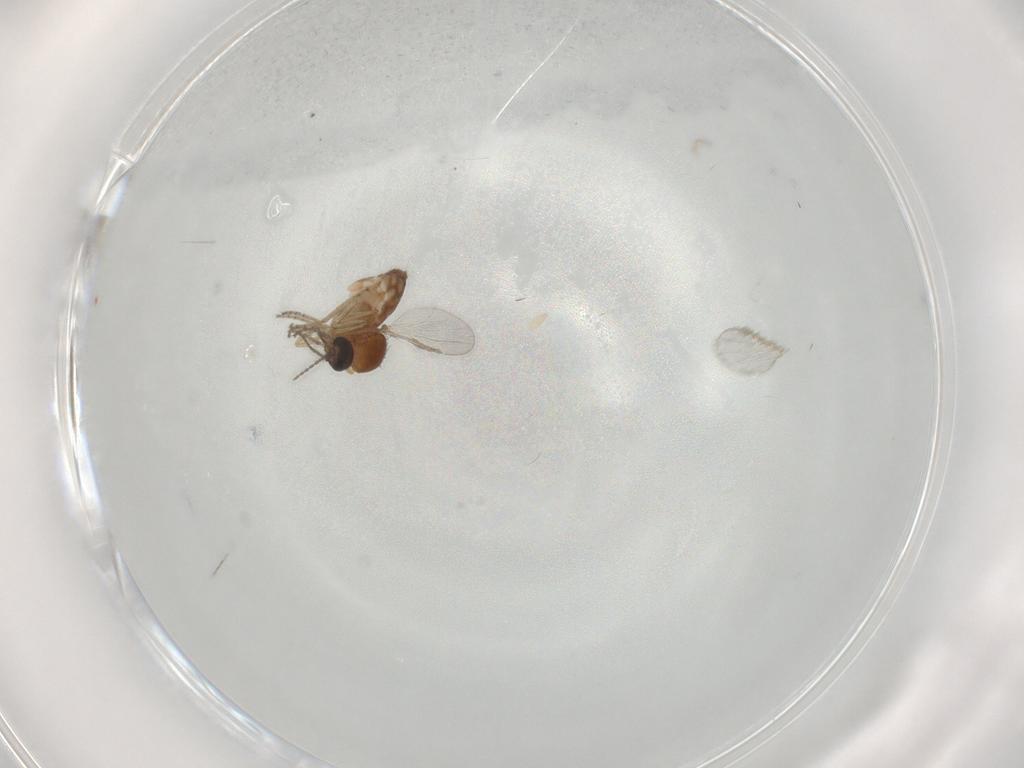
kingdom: Animalia
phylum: Arthropoda
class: Insecta
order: Diptera
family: Ceratopogonidae
